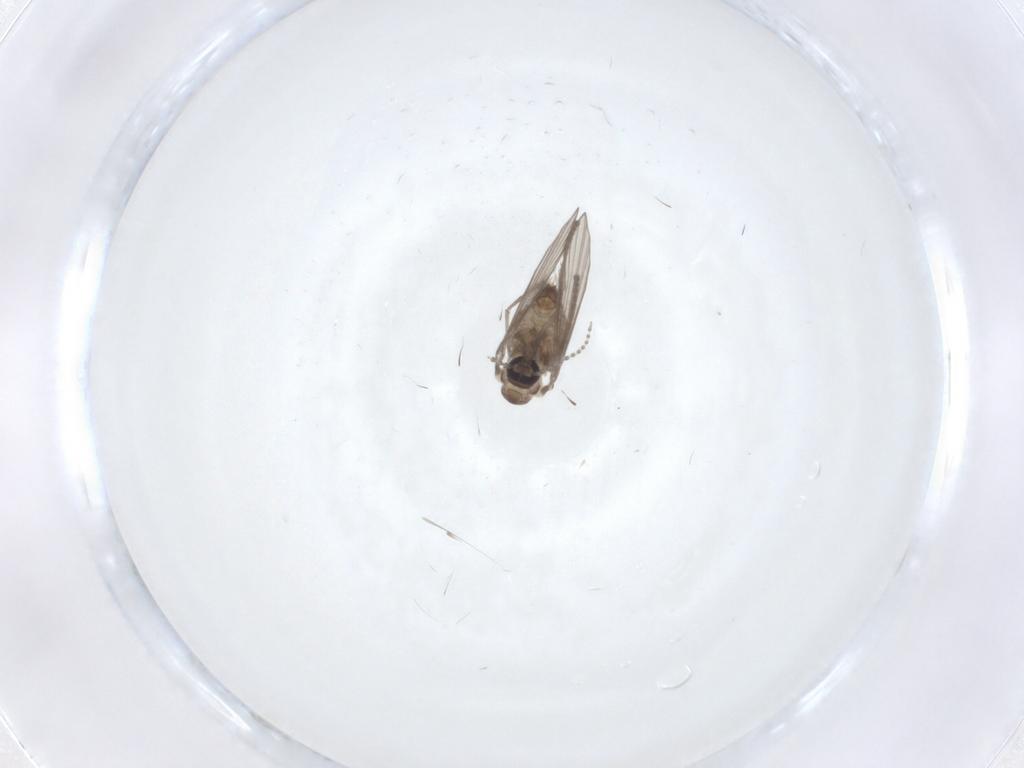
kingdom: Animalia
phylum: Arthropoda
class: Insecta
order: Diptera
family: Psychodidae
